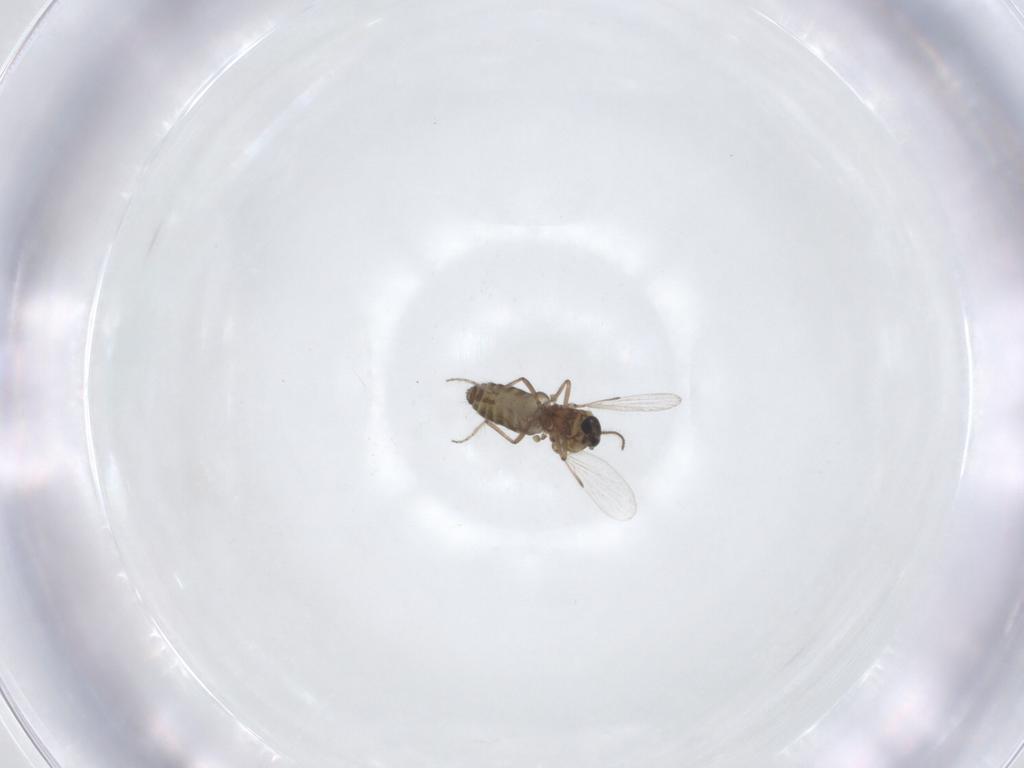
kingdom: Animalia
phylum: Arthropoda
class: Insecta
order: Diptera
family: Ceratopogonidae
